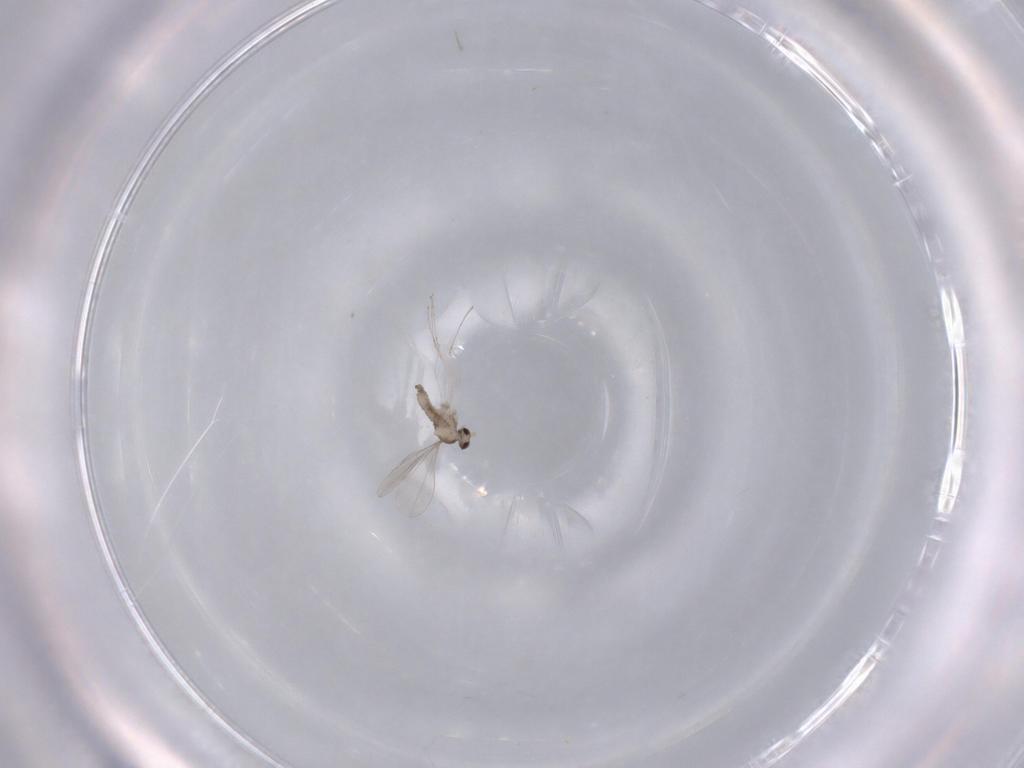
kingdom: Animalia
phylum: Arthropoda
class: Insecta
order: Diptera
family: Cecidomyiidae
